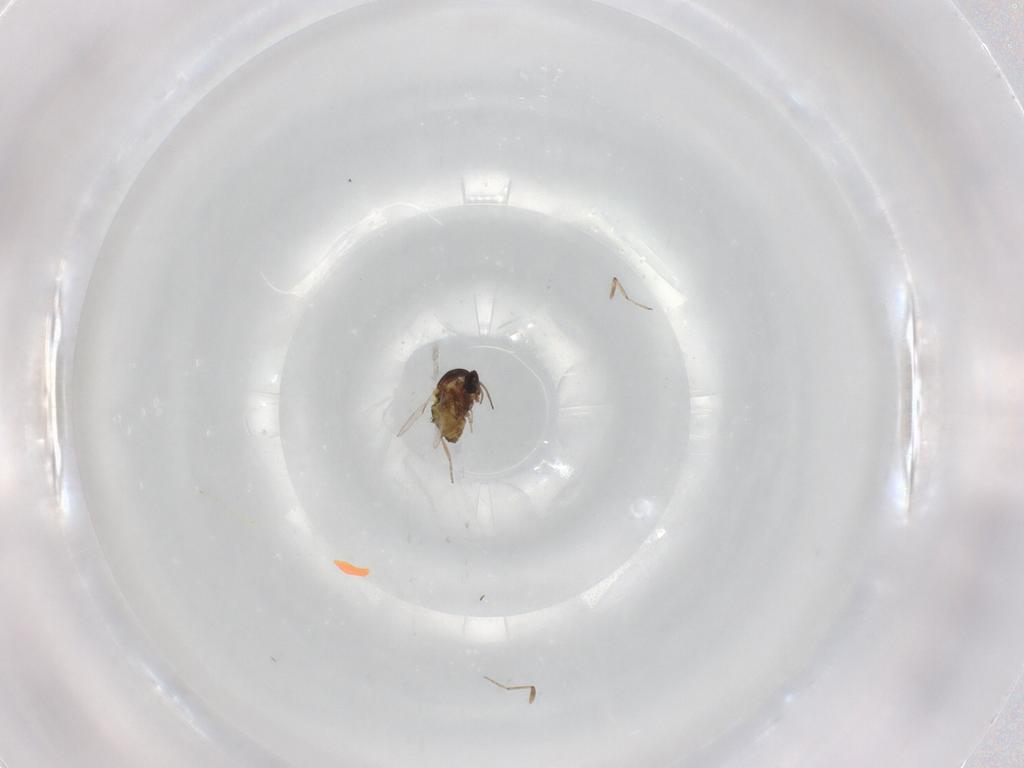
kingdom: Animalia
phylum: Arthropoda
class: Insecta
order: Diptera
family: Ceratopogonidae
